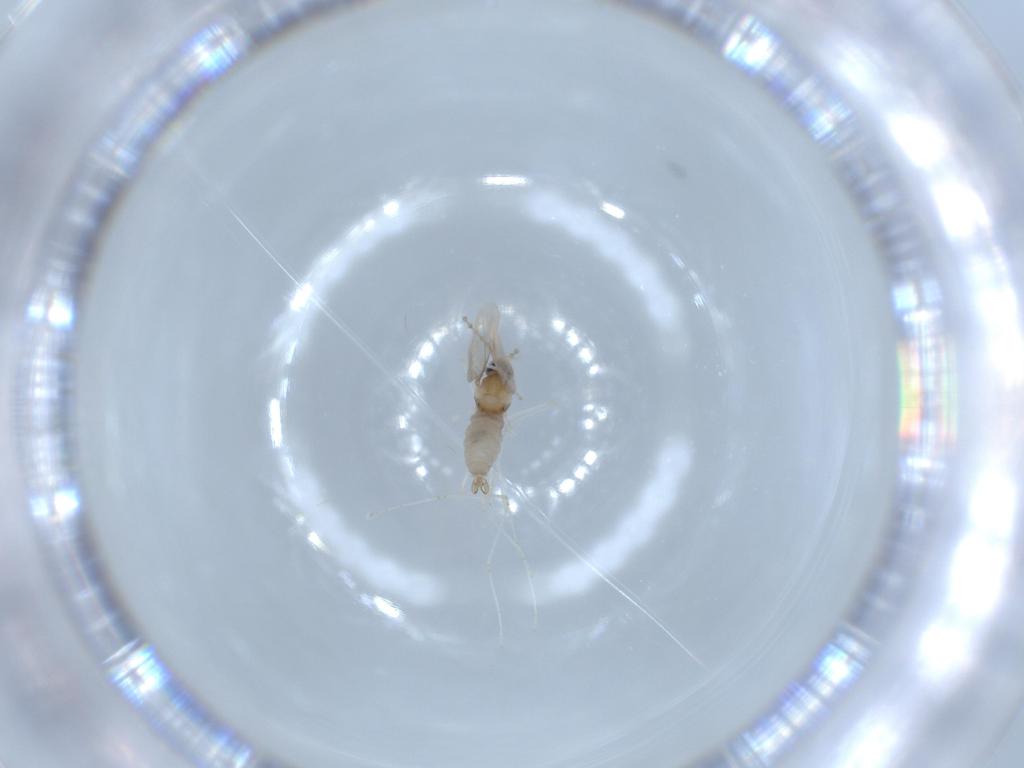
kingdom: Animalia
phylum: Arthropoda
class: Insecta
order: Diptera
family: Cecidomyiidae
